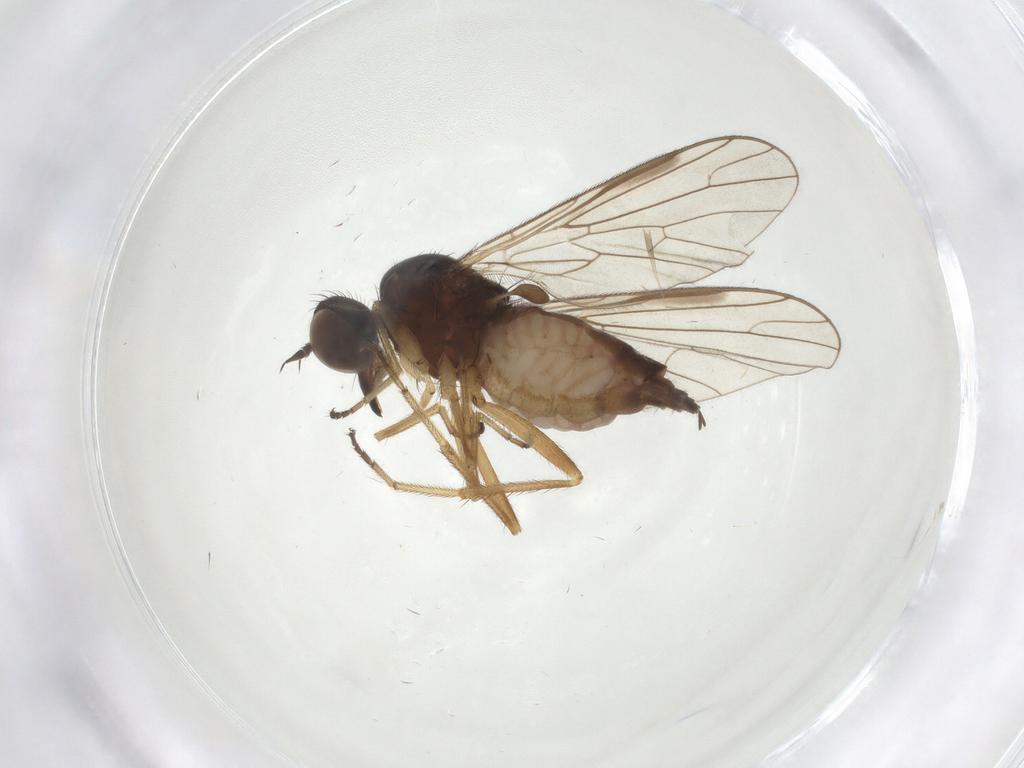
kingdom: Animalia
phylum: Arthropoda
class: Insecta
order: Diptera
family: Empididae
